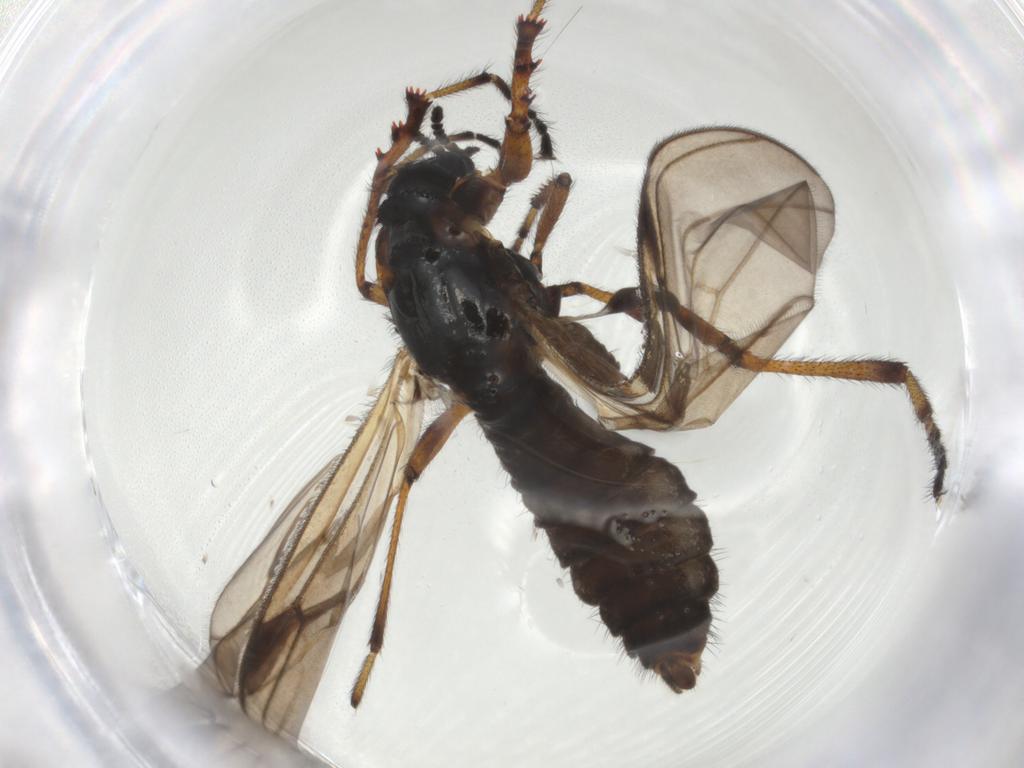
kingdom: Animalia
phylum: Arthropoda
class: Insecta
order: Diptera
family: Bibionidae
